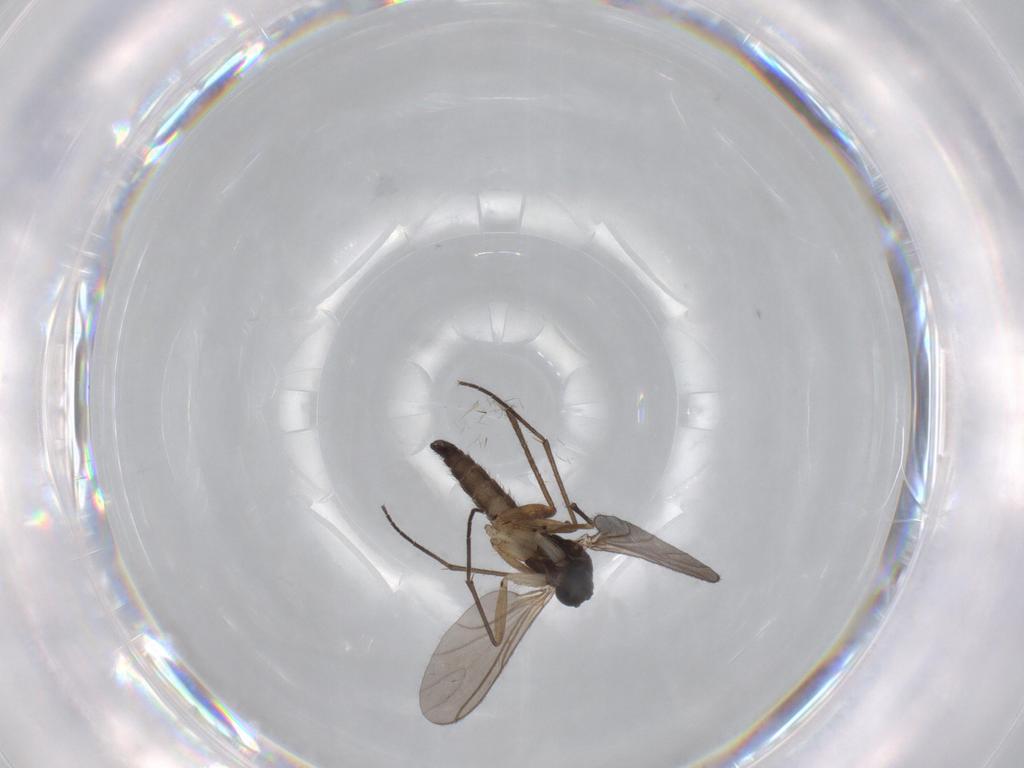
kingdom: Animalia
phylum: Arthropoda
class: Insecta
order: Diptera
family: Sciaridae
